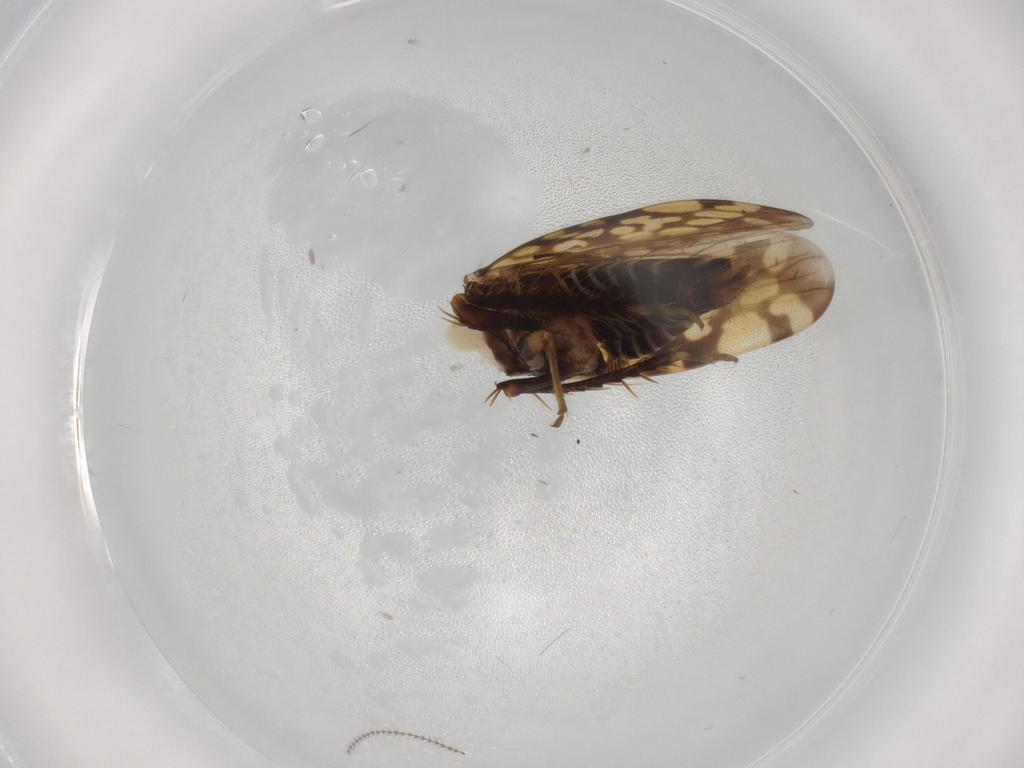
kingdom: Animalia
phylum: Arthropoda
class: Insecta
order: Hemiptera
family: Cicadellidae
